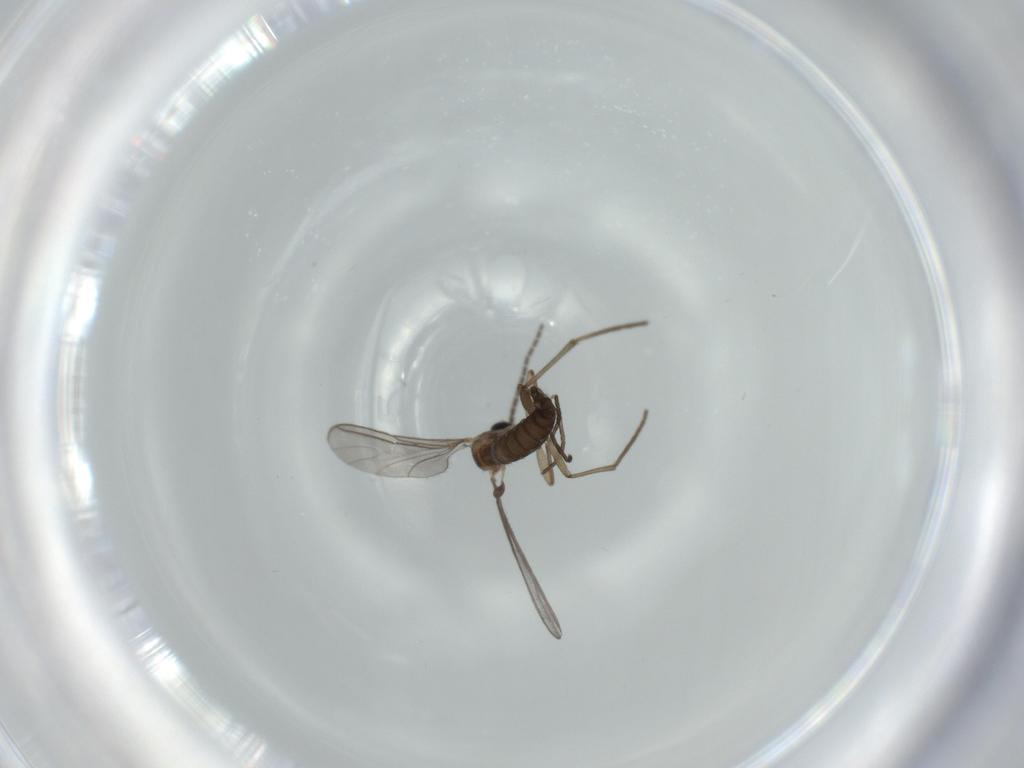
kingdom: Animalia
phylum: Arthropoda
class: Insecta
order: Diptera
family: Sciaridae
